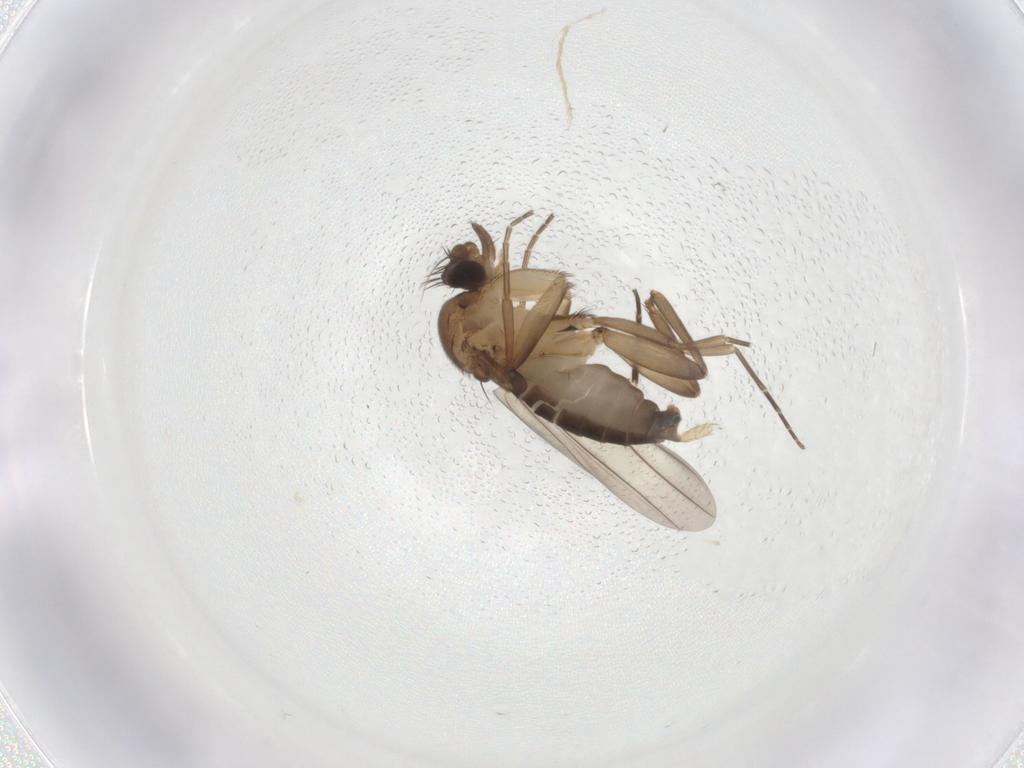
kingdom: Animalia
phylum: Arthropoda
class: Insecta
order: Diptera
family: Phoridae
